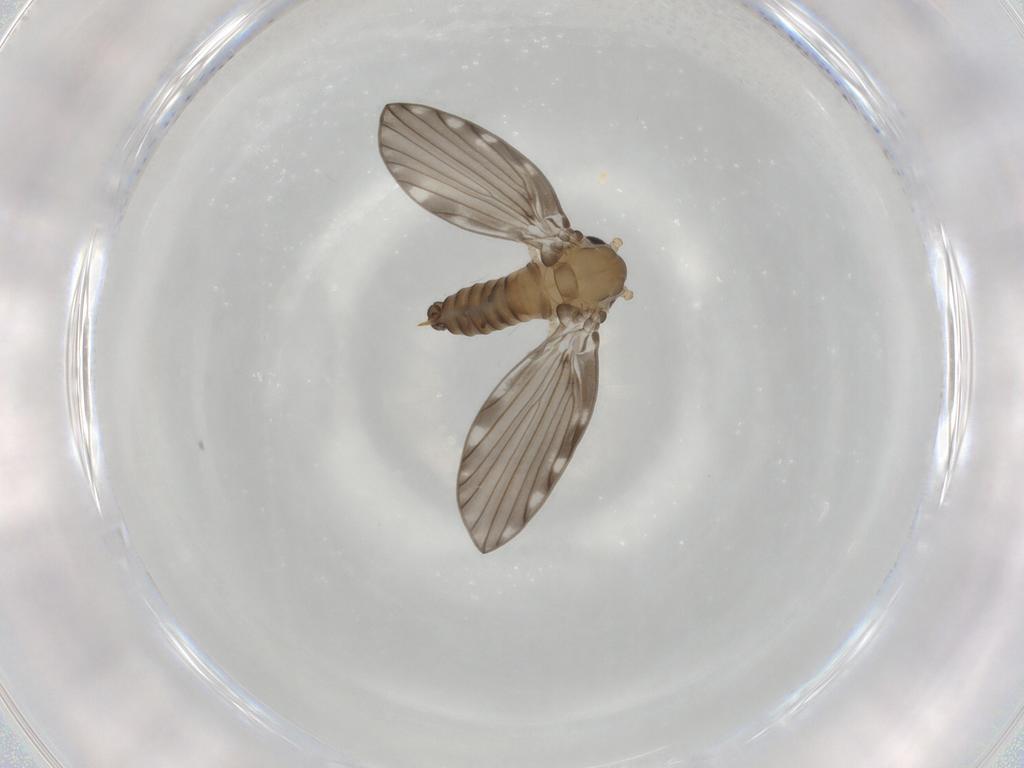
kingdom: Animalia
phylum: Arthropoda
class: Insecta
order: Diptera
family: Psychodidae
